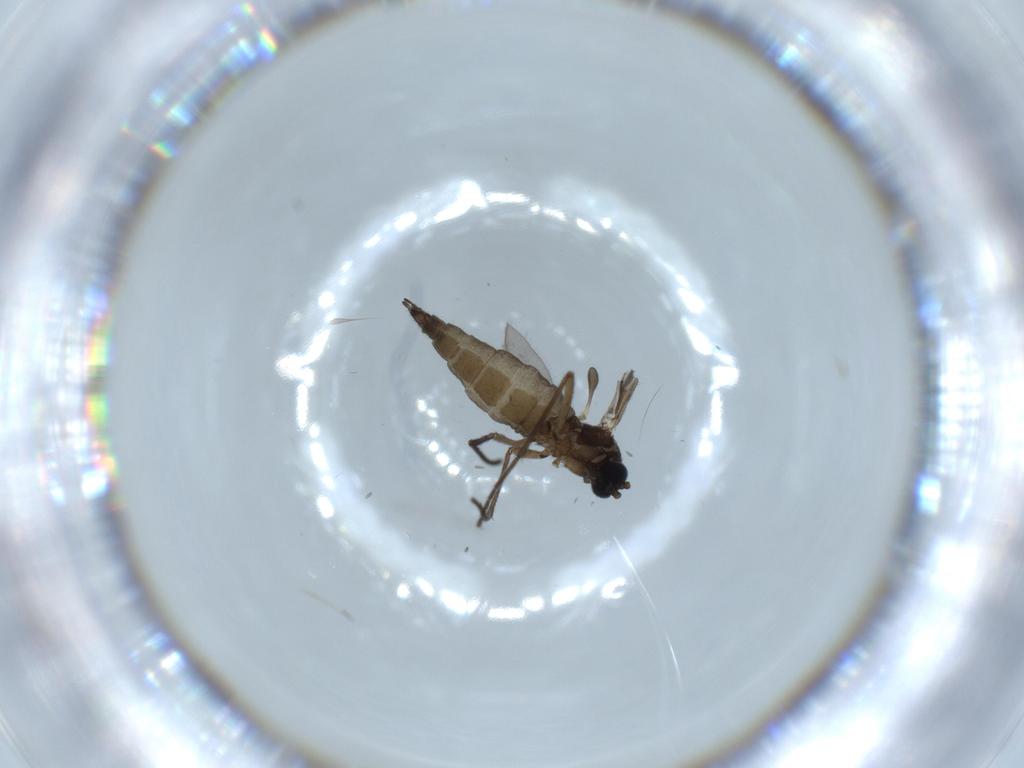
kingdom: Animalia
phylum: Arthropoda
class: Insecta
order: Diptera
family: Sciaridae
